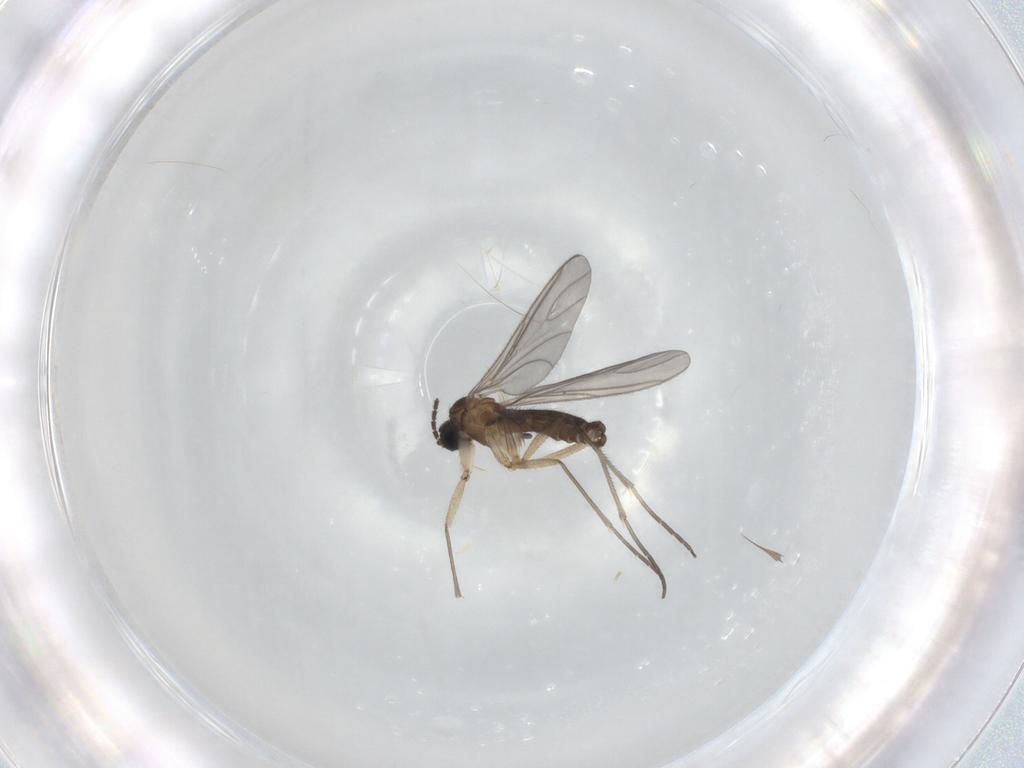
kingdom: Animalia
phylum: Arthropoda
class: Insecta
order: Diptera
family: Sciaridae
